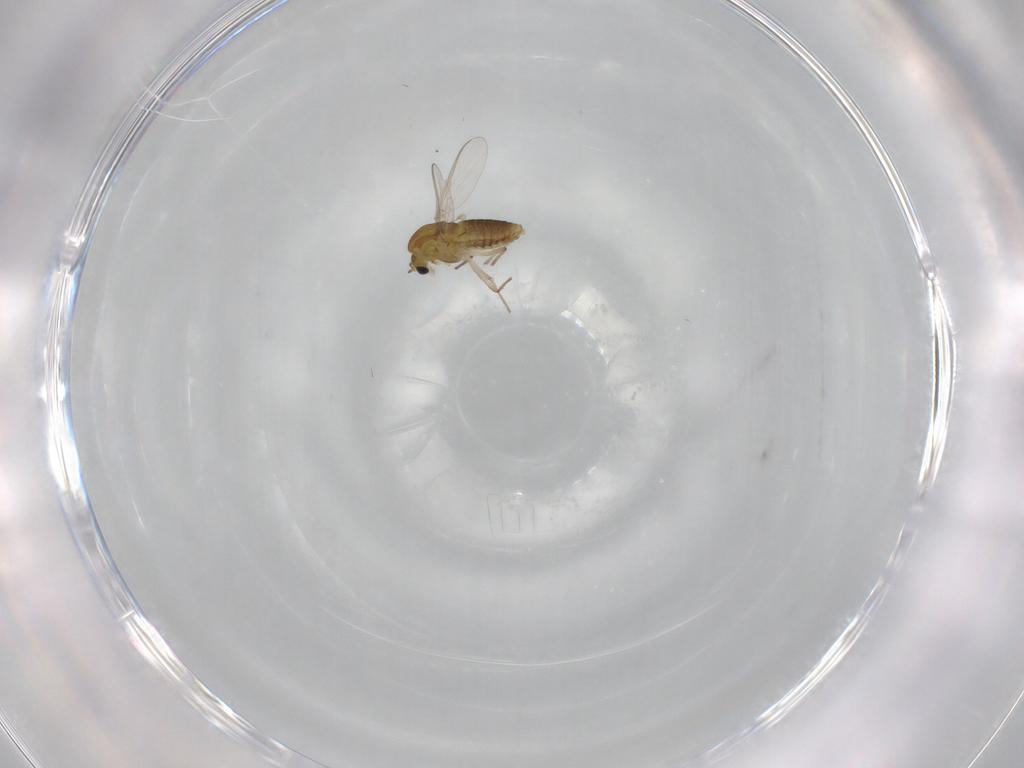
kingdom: Animalia
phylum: Arthropoda
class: Insecta
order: Diptera
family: Chironomidae
